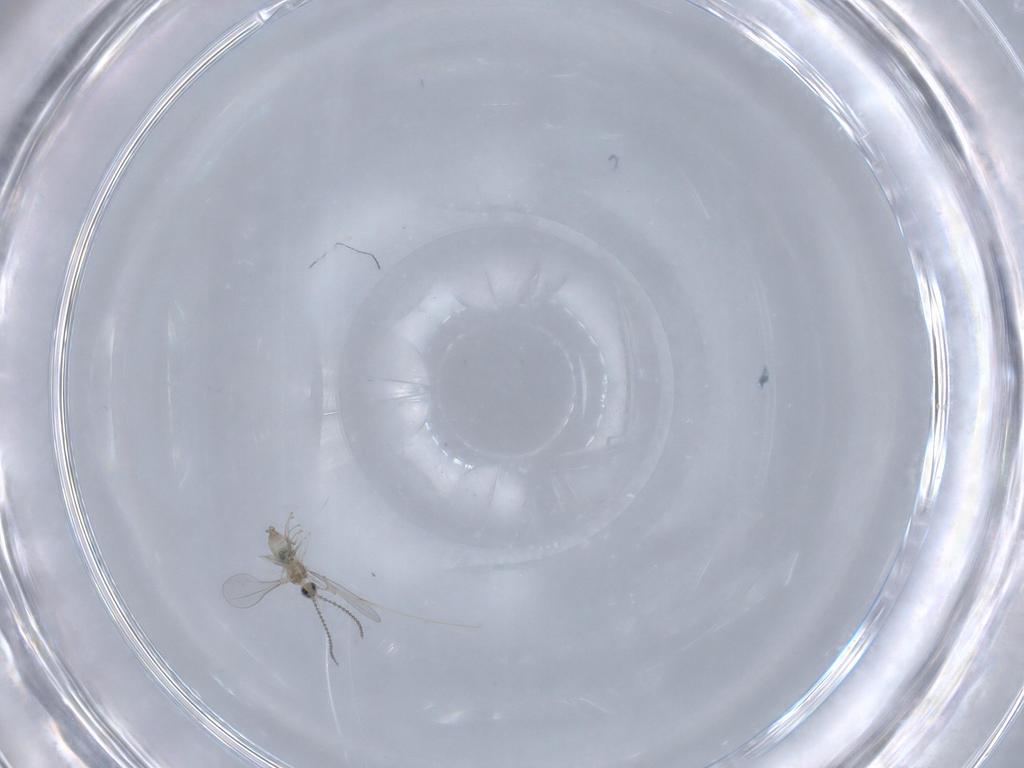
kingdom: Animalia
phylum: Arthropoda
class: Insecta
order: Diptera
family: Cecidomyiidae
